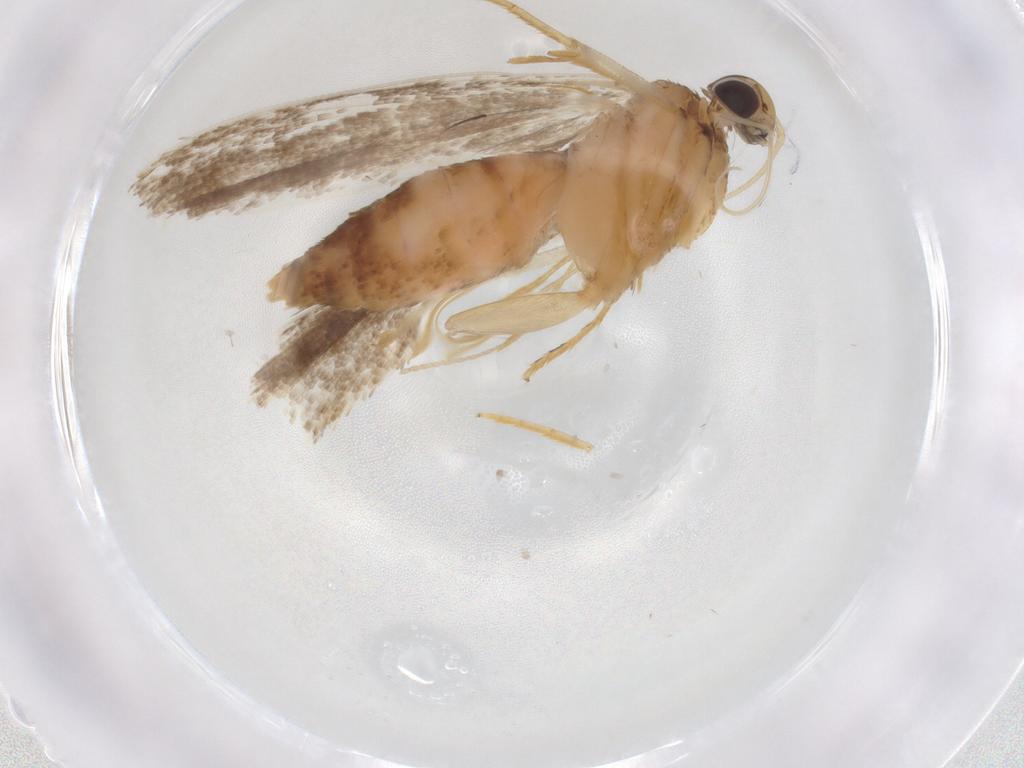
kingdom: Animalia
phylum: Arthropoda
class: Insecta
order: Lepidoptera
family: Gelechiidae
